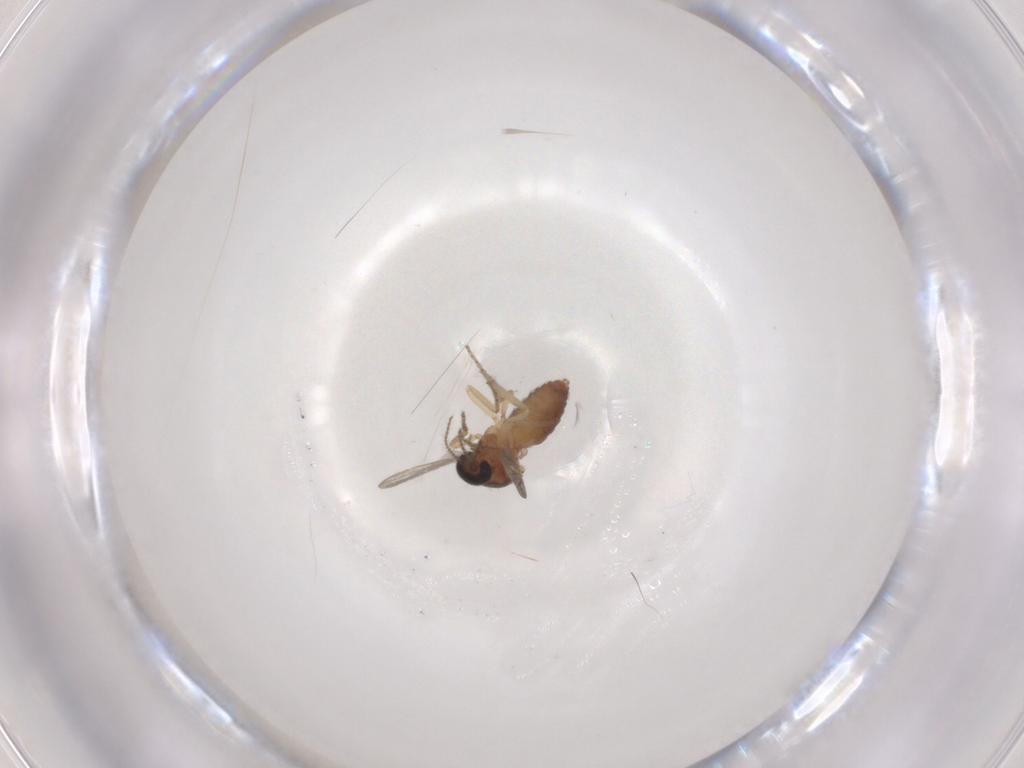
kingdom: Animalia
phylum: Arthropoda
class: Insecta
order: Diptera
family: Ceratopogonidae
